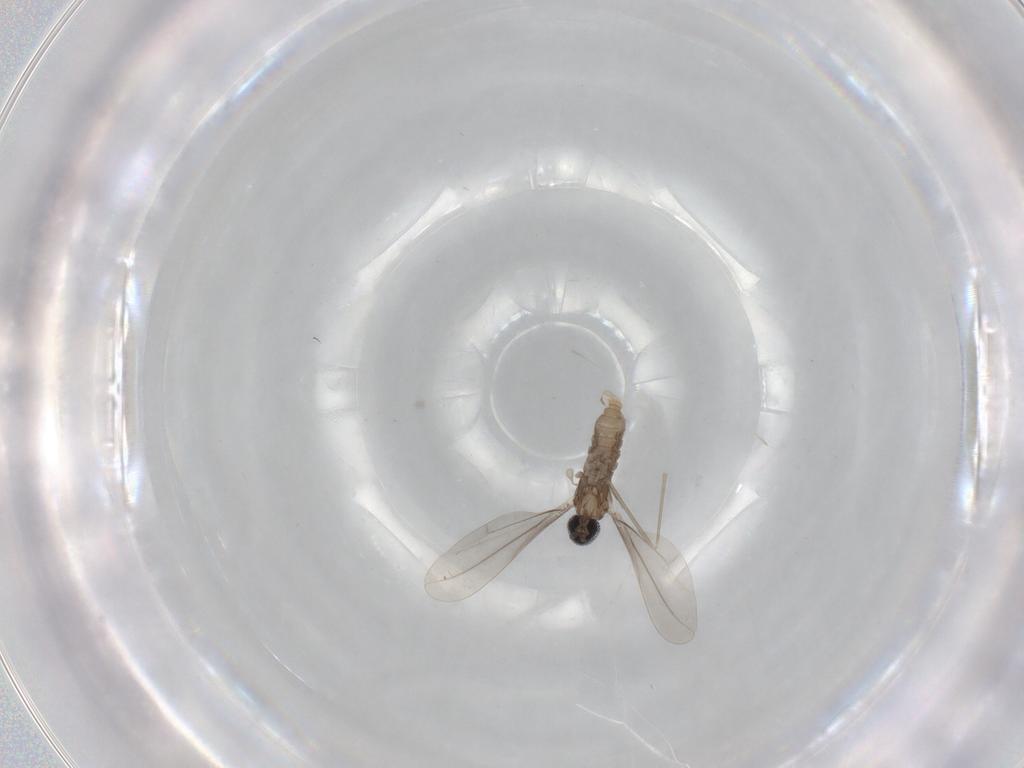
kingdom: Animalia
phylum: Arthropoda
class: Insecta
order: Diptera
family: Cecidomyiidae
